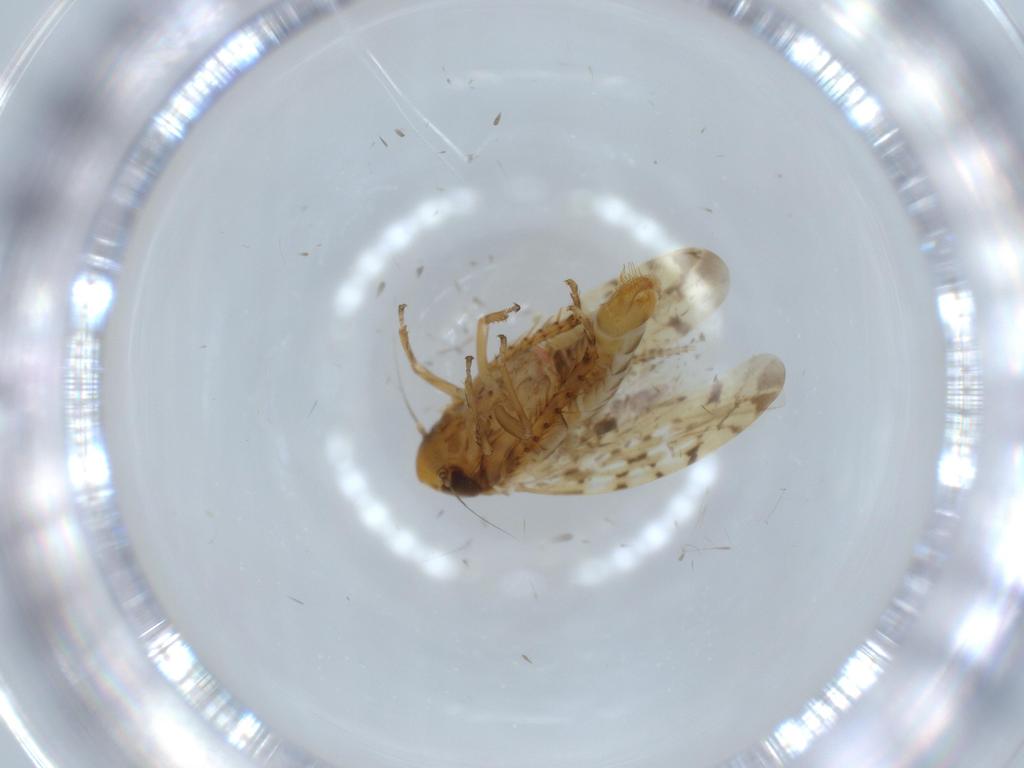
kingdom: Animalia
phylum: Arthropoda
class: Insecta
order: Hemiptera
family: Cicadellidae
